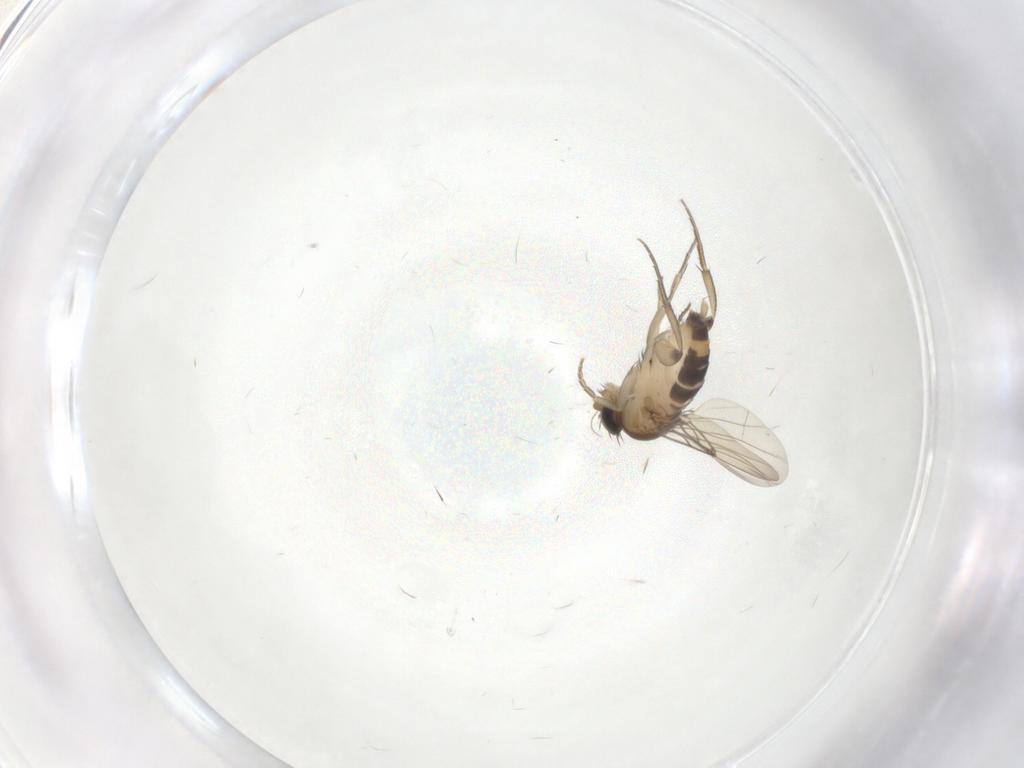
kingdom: Animalia
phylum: Arthropoda
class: Insecta
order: Diptera
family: Phoridae
